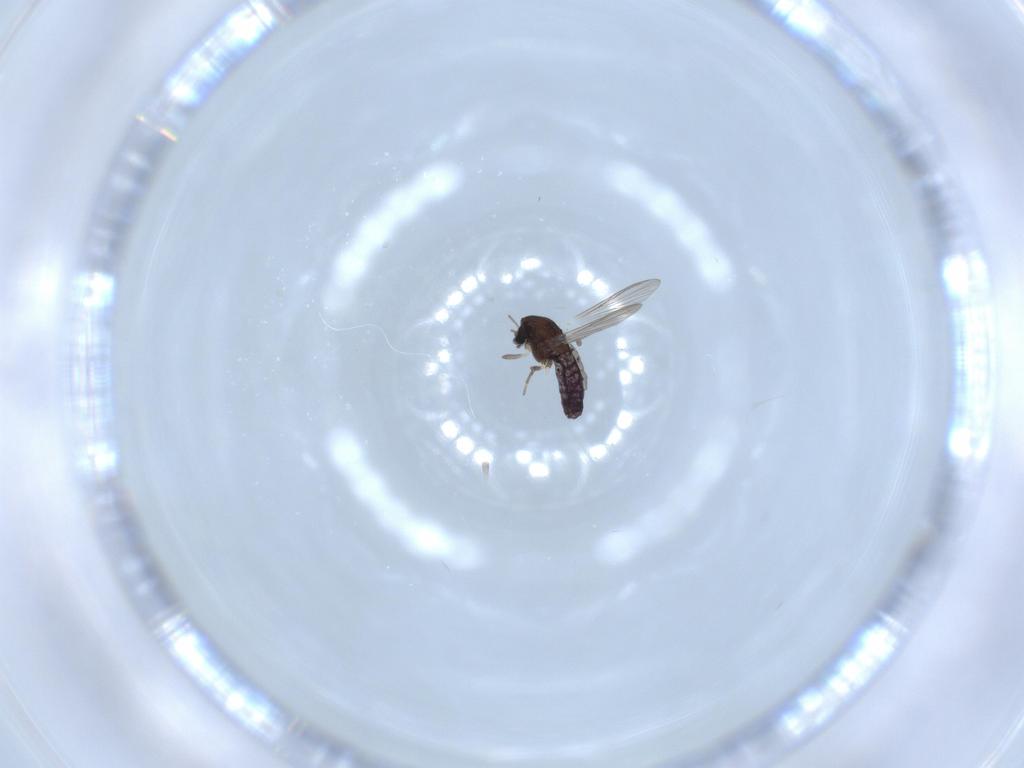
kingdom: Animalia
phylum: Arthropoda
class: Insecta
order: Diptera
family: Chironomidae
